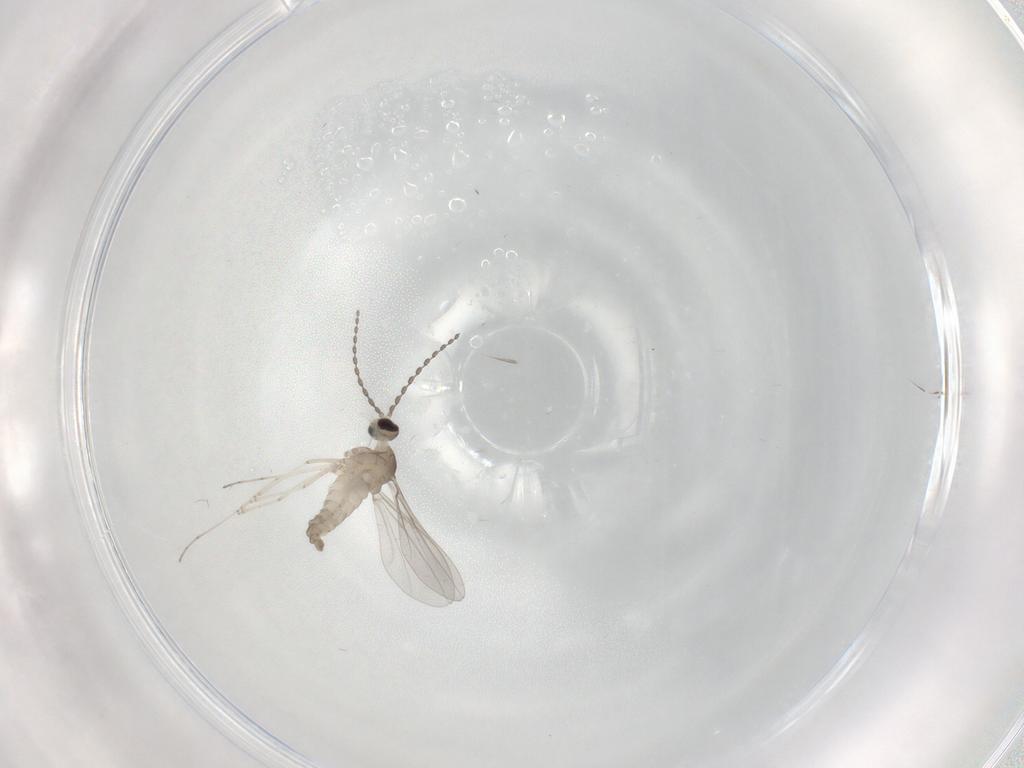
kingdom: Animalia
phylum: Arthropoda
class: Insecta
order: Diptera
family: Cecidomyiidae
